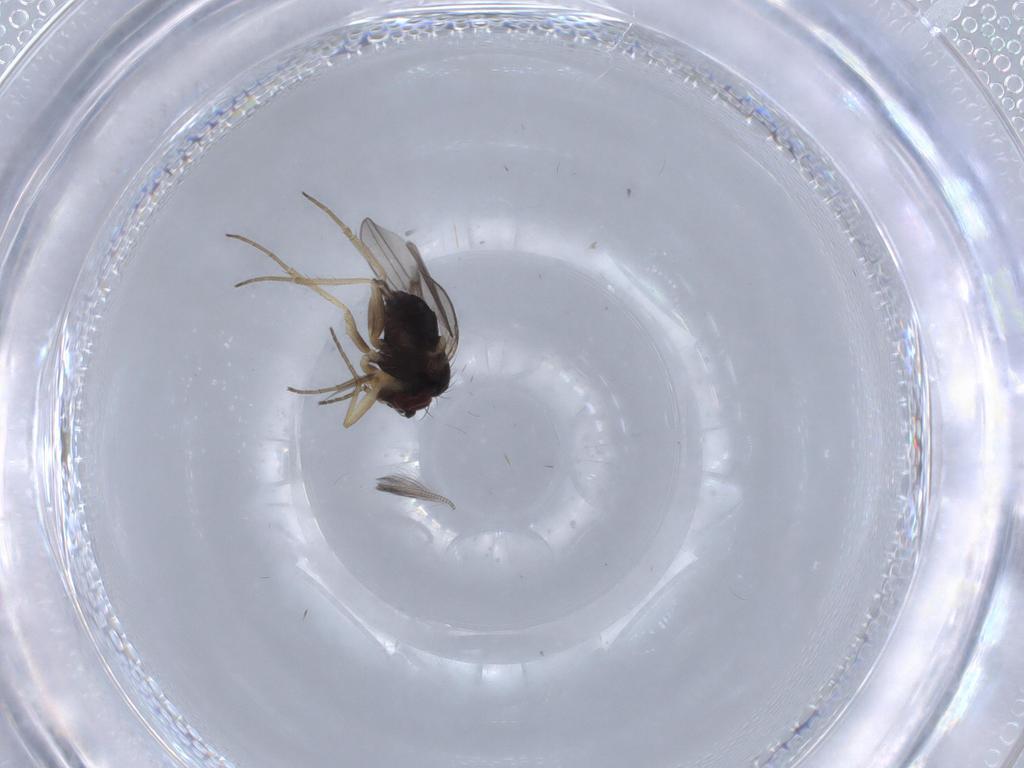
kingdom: Animalia
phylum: Arthropoda
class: Insecta
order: Diptera
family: Dolichopodidae
